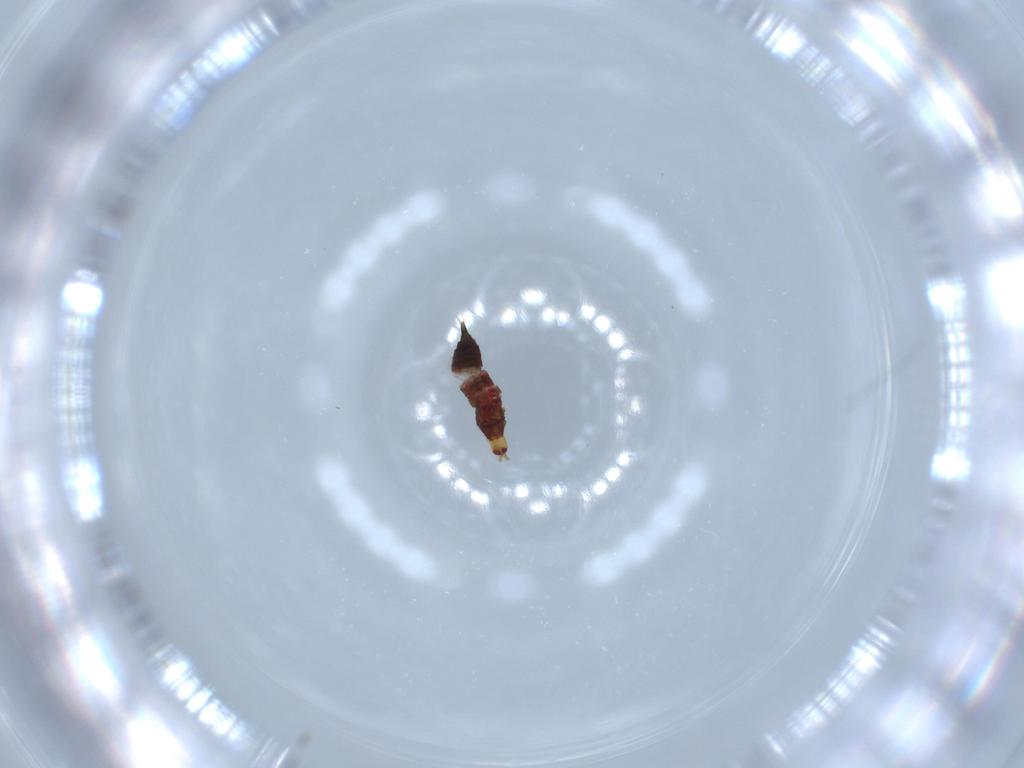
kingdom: Animalia
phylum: Arthropoda
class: Insecta
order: Thysanoptera
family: Phlaeothripidae
